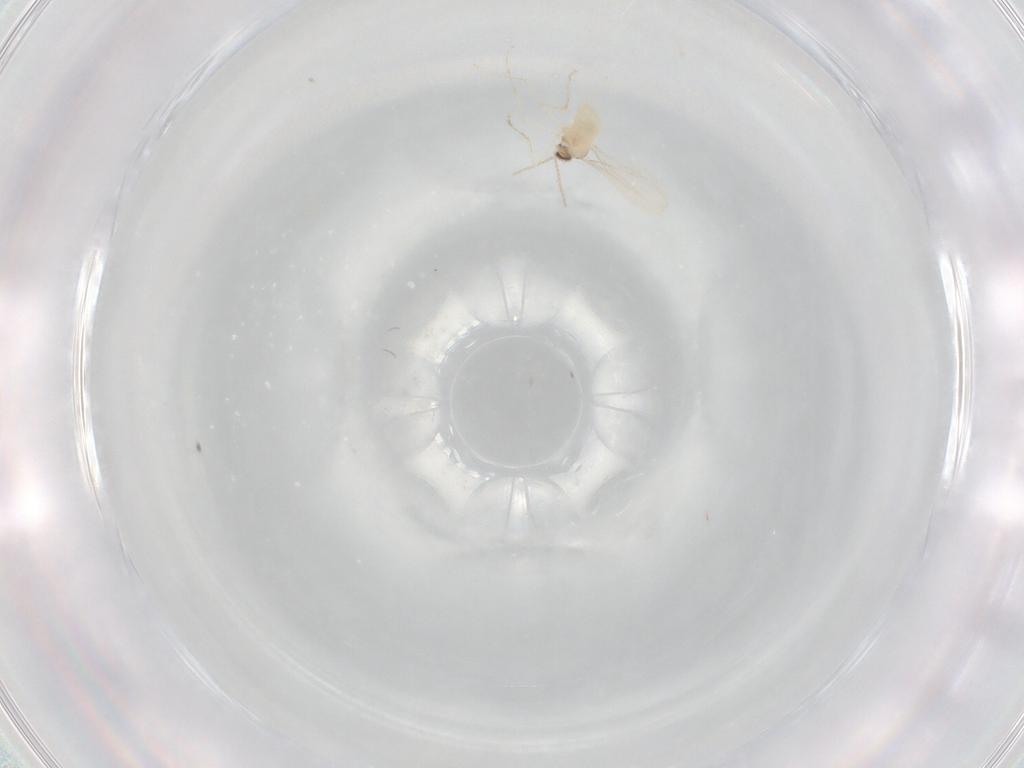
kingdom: Animalia
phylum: Arthropoda
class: Insecta
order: Diptera
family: Cecidomyiidae
